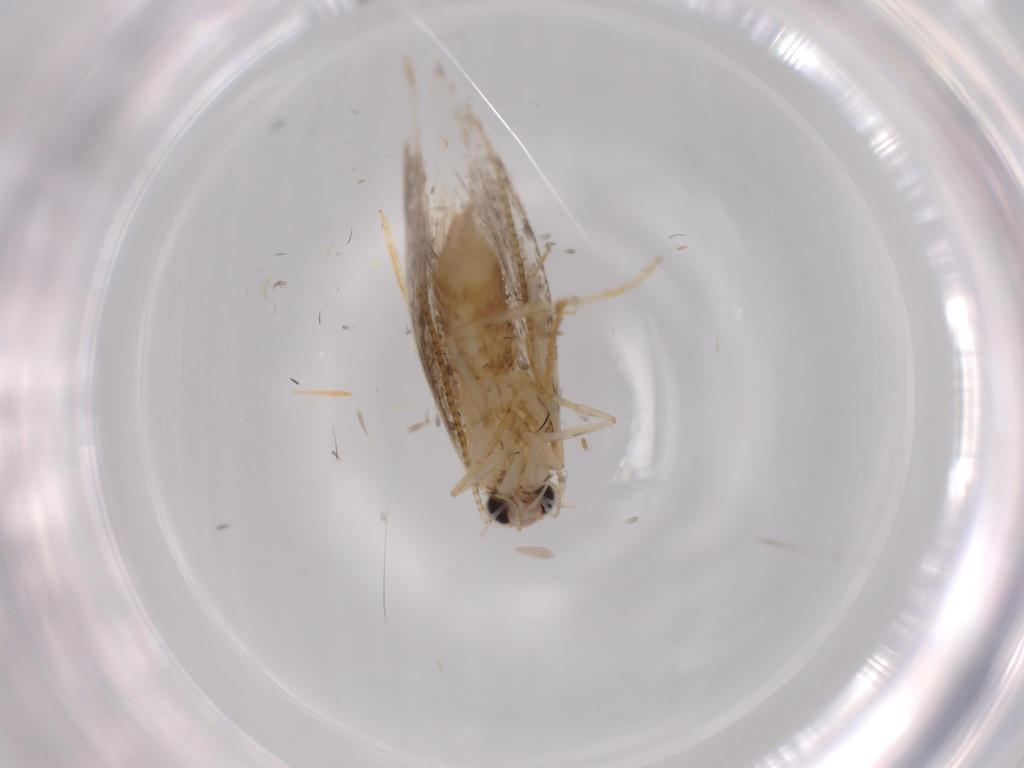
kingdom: Animalia
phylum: Arthropoda
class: Insecta
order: Lepidoptera
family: Tineidae
